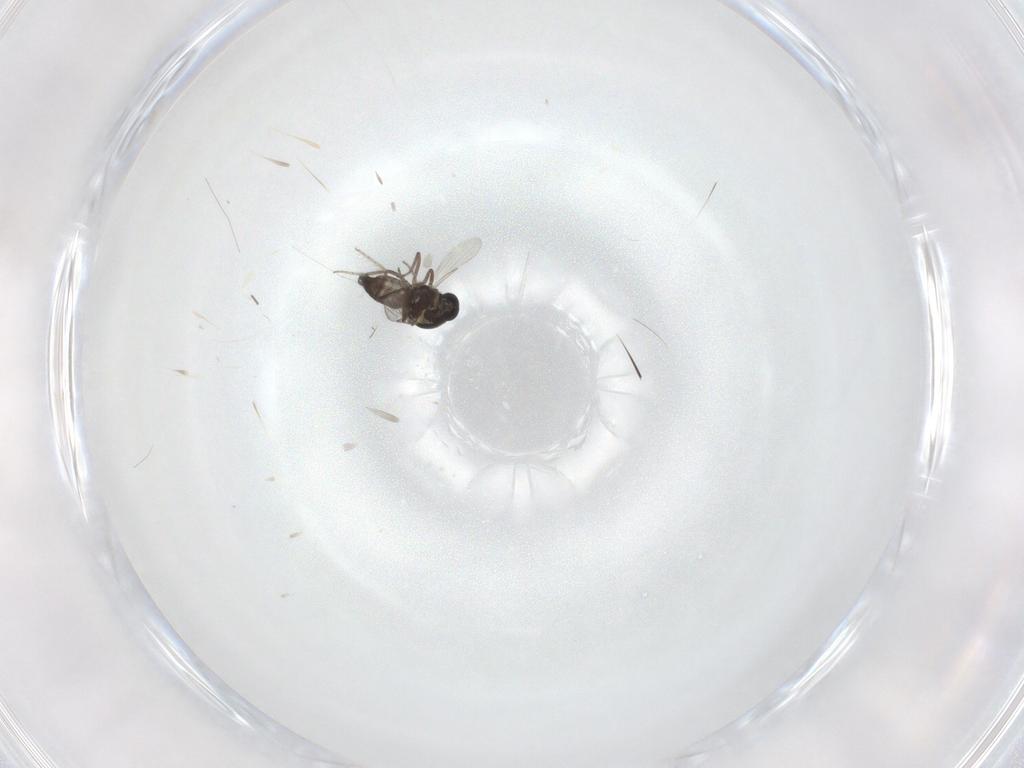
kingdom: Animalia
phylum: Arthropoda
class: Insecta
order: Diptera
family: Ceratopogonidae
